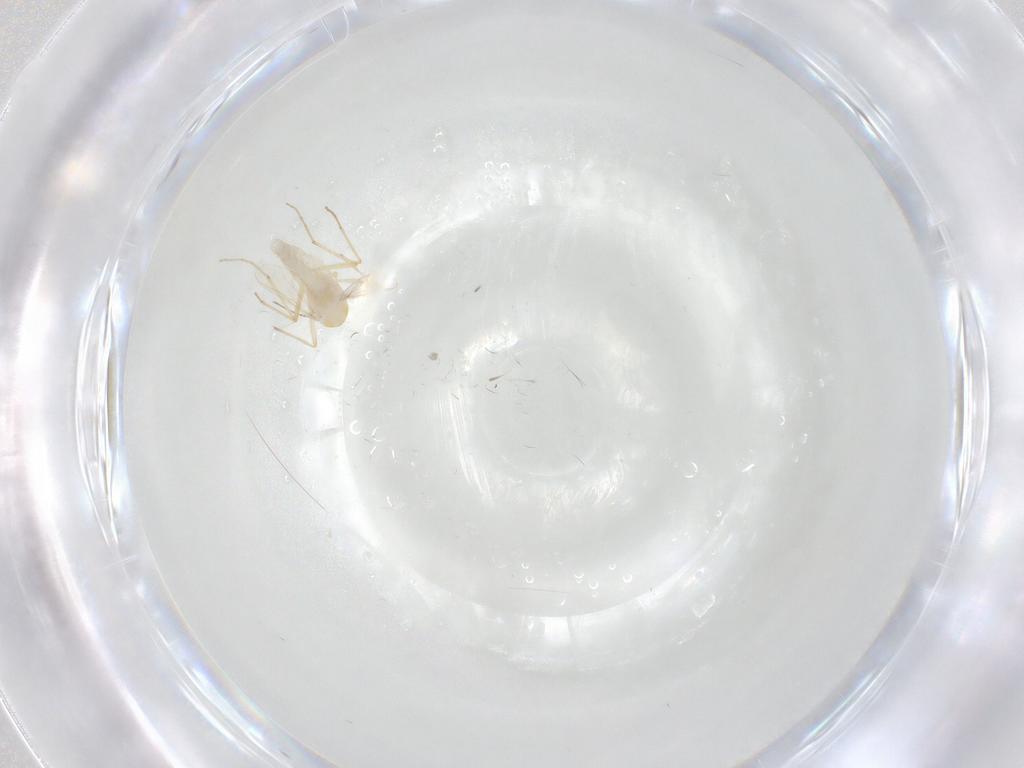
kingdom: Animalia
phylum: Arthropoda
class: Insecta
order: Diptera
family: Chironomidae
